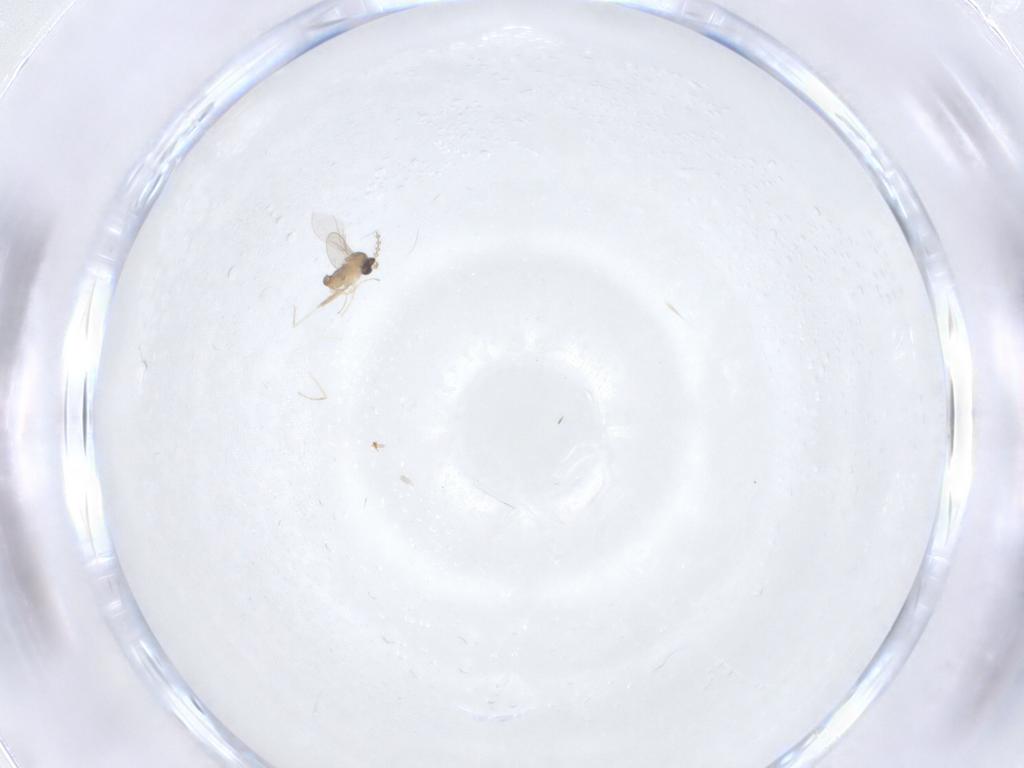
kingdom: Animalia
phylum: Arthropoda
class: Insecta
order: Diptera
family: Cecidomyiidae
